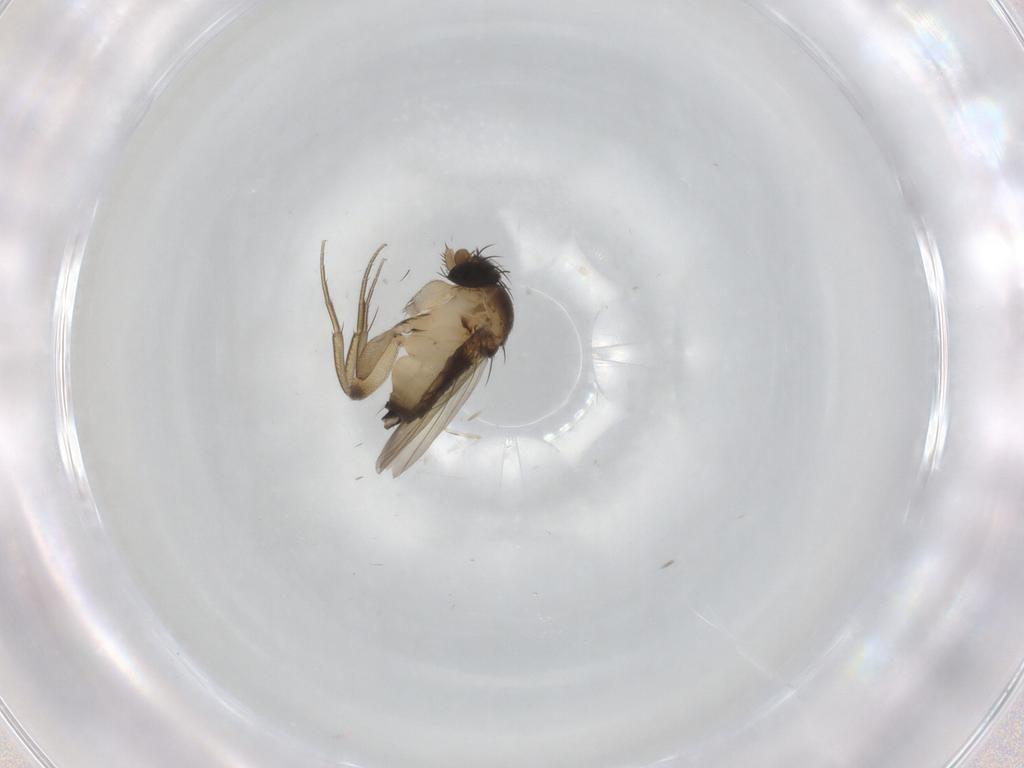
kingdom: Animalia
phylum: Arthropoda
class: Insecta
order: Diptera
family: Phoridae
